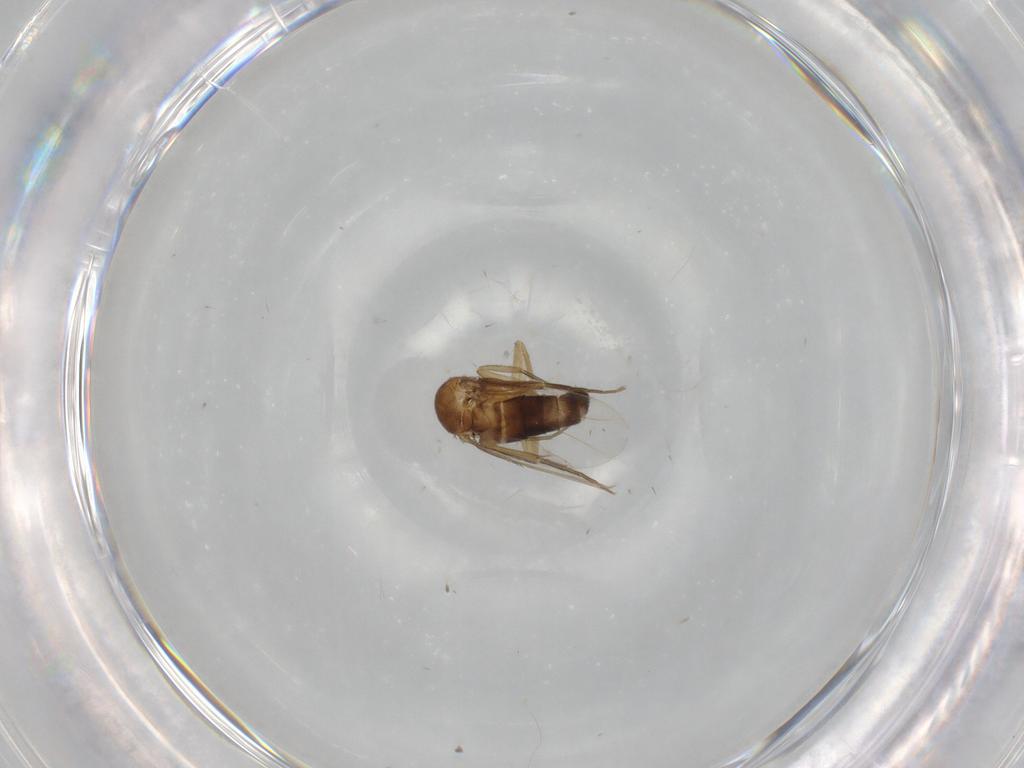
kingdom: Animalia
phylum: Arthropoda
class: Insecta
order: Diptera
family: Phoridae
